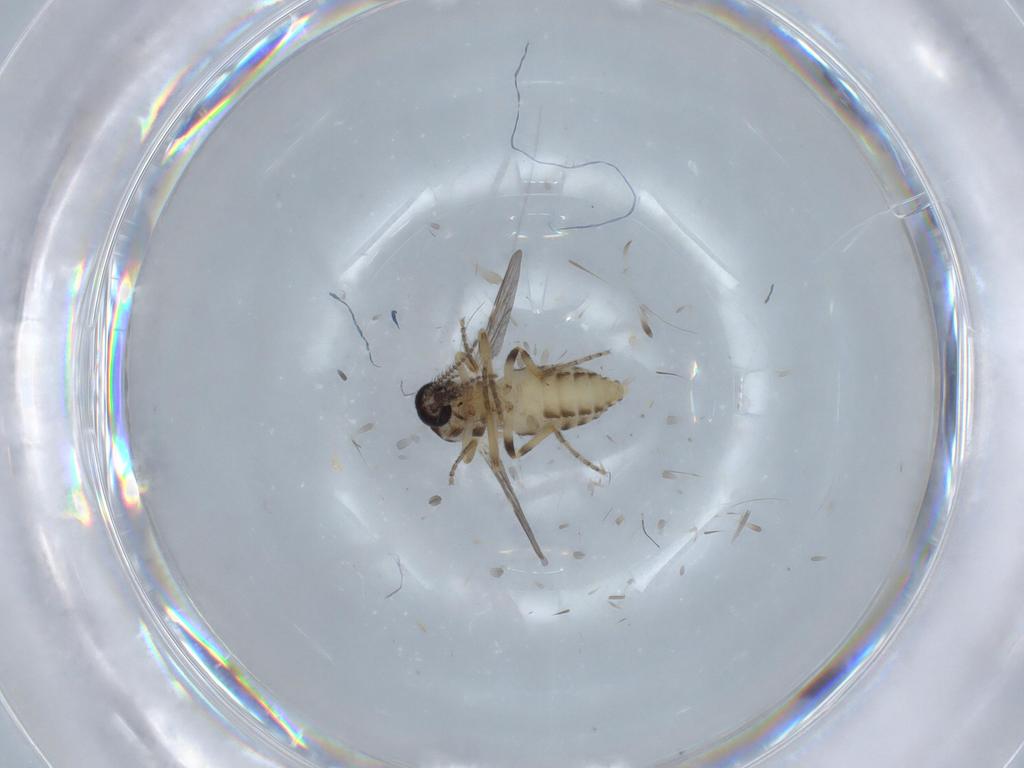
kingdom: Animalia
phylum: Arthropoda
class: Insecta
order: Diptera
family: Ceratopogonidae
